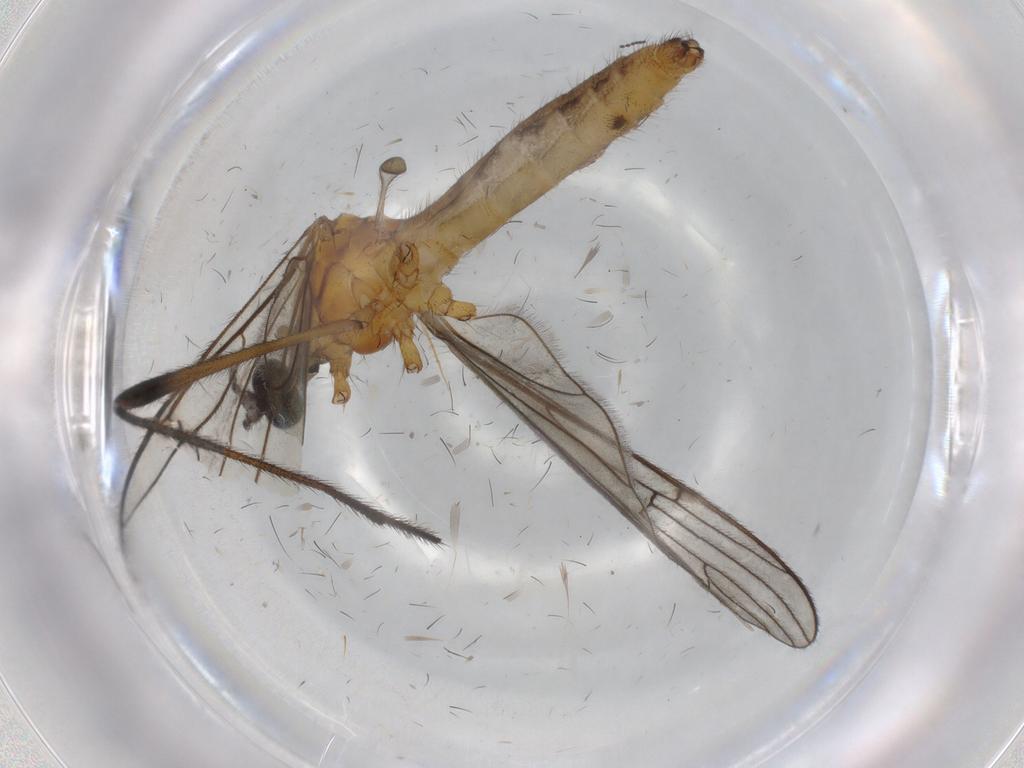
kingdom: Animalia
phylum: Arthropoda
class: Insecta
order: Diptera
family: Chironomidae
